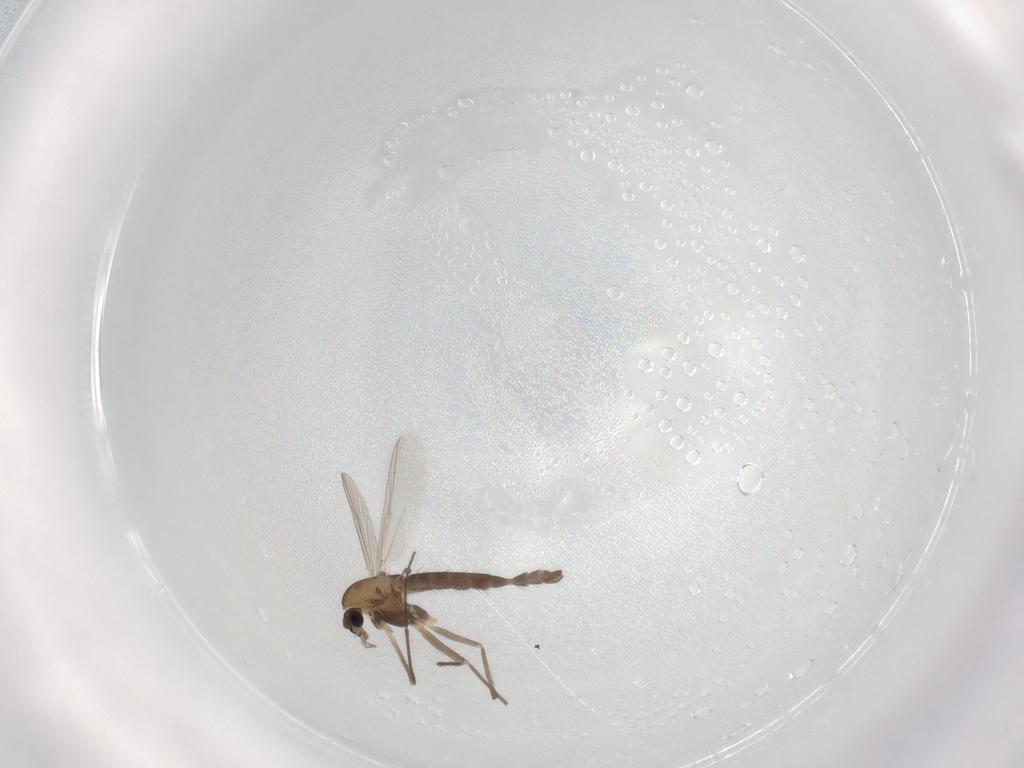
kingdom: Animalia
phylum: Arthropoda
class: Insecta
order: Diptera
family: Chironomidae
